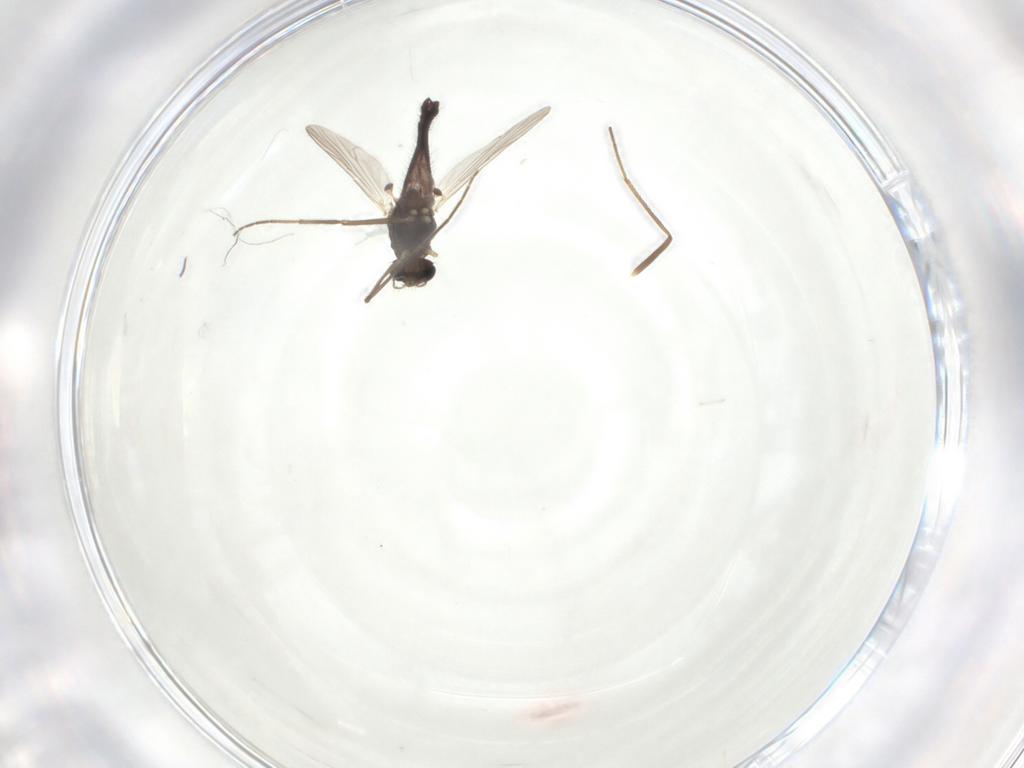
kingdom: Animalia
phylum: Arthropoda
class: Insecta
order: Diptera
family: Chironomidae
